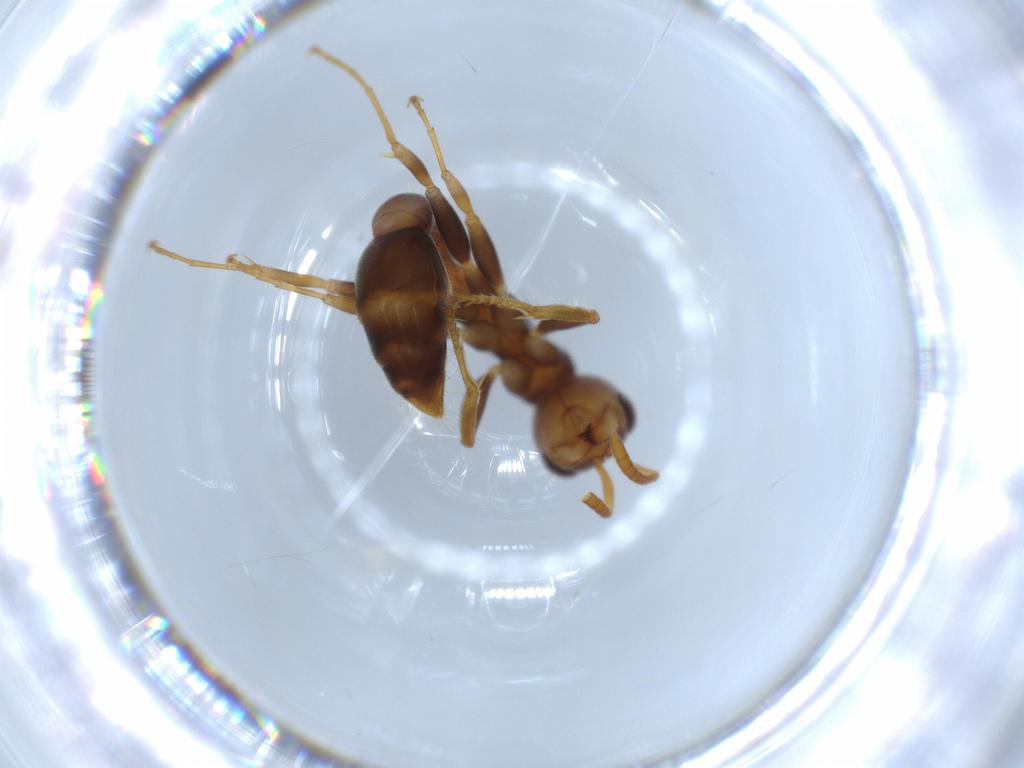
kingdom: Animalia
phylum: Arthropoda
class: Insecta
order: Hymenoptera
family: Formicidae
